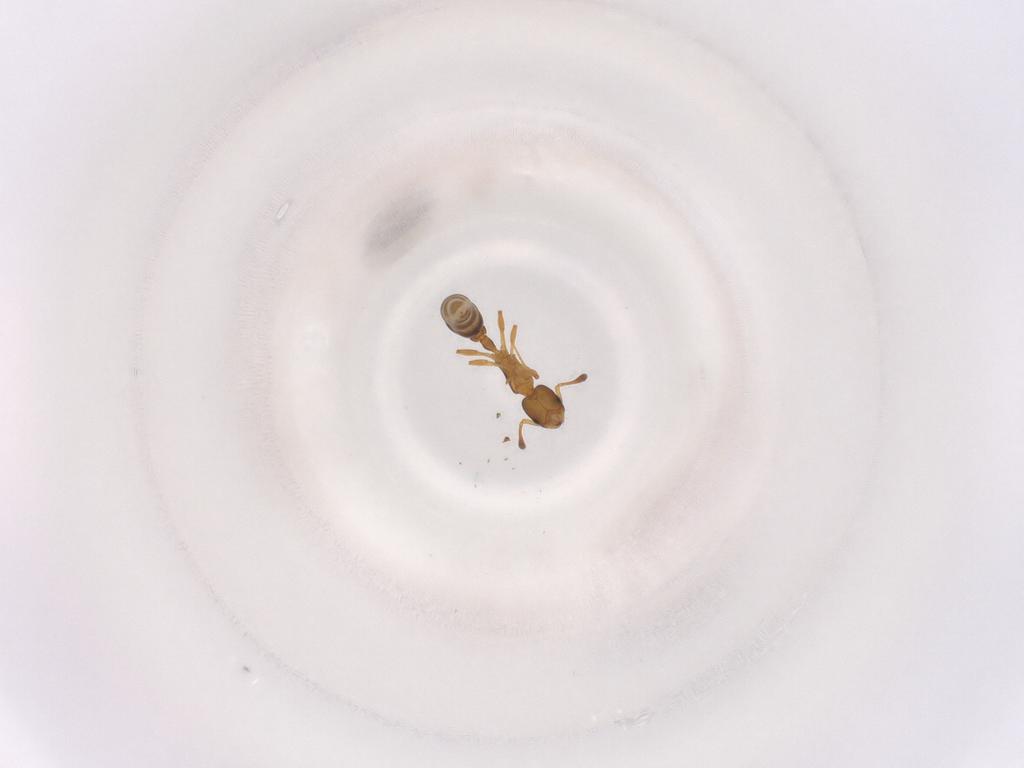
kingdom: Animalia
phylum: Arthropoda
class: Insecta
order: Hymenoptera
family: Formicidae
